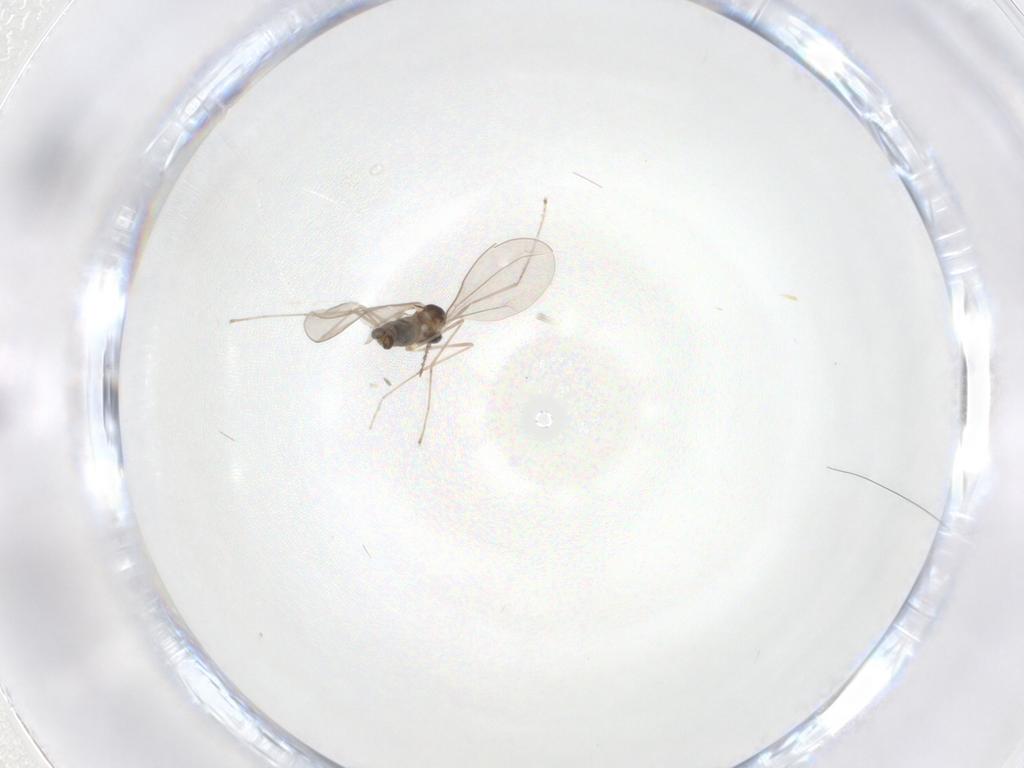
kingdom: Animalia
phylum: Arthropoda
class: Insecta
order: Diptera
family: Cecidomyiidae
